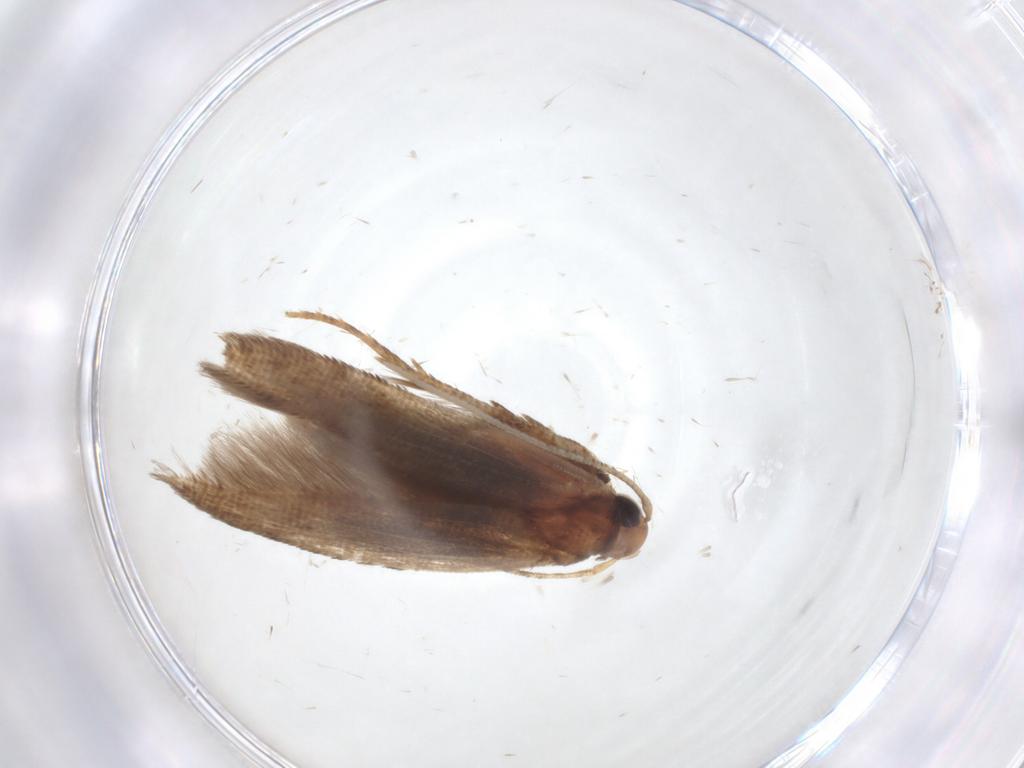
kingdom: Animalia
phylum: Arthropoda
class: Insecta
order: Lepidoptera
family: Cosmopterigidae
